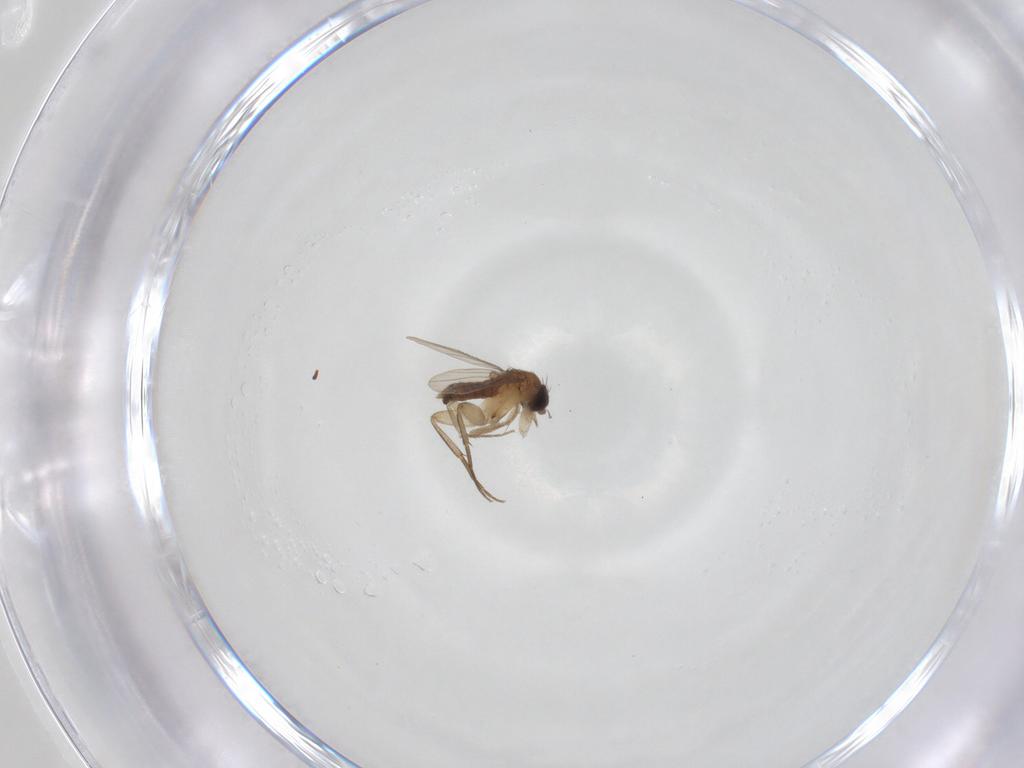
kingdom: Animalia
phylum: Arthropoda
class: Insecta
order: Diptera
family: Phoridae
